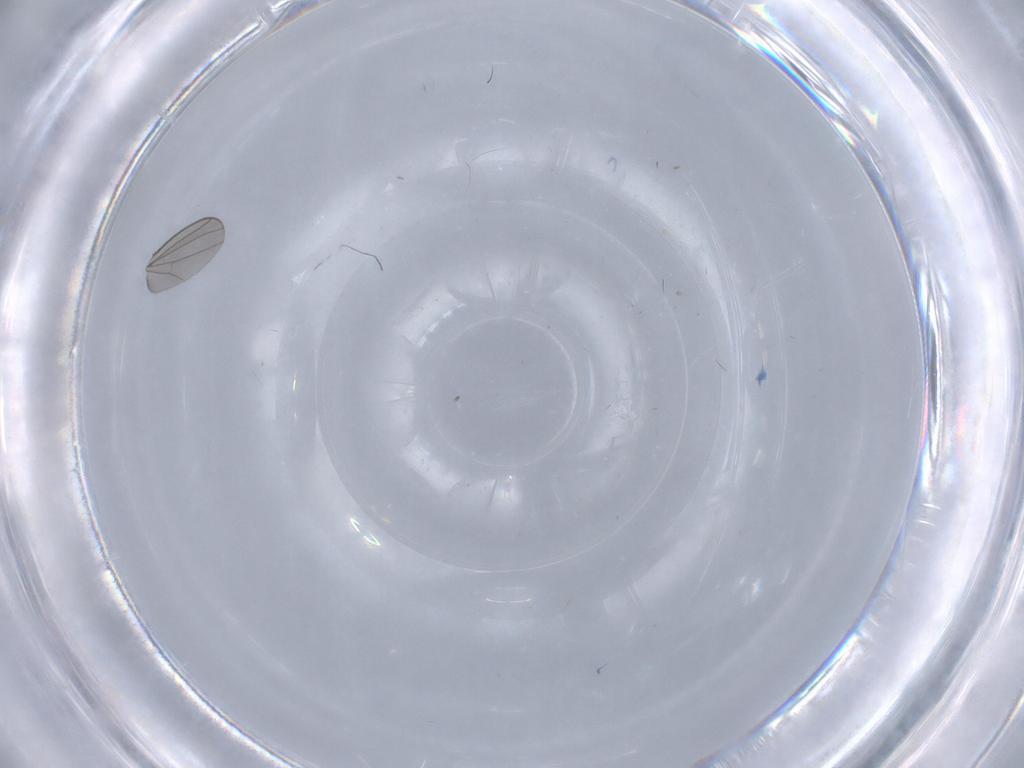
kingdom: Animalia
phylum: Arthropoda
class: Insecta
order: Diptera
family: Dolichopodidae
